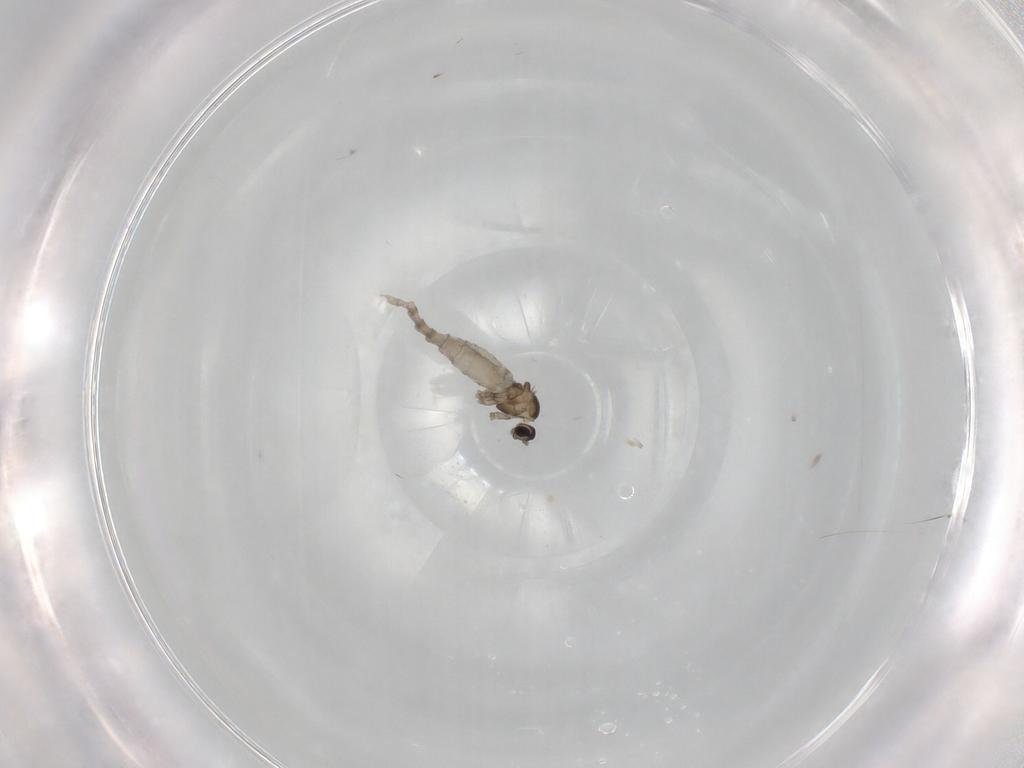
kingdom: Animalia
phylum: Arthropoda
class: Insecta
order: Diptera
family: Cecidomyiidae
